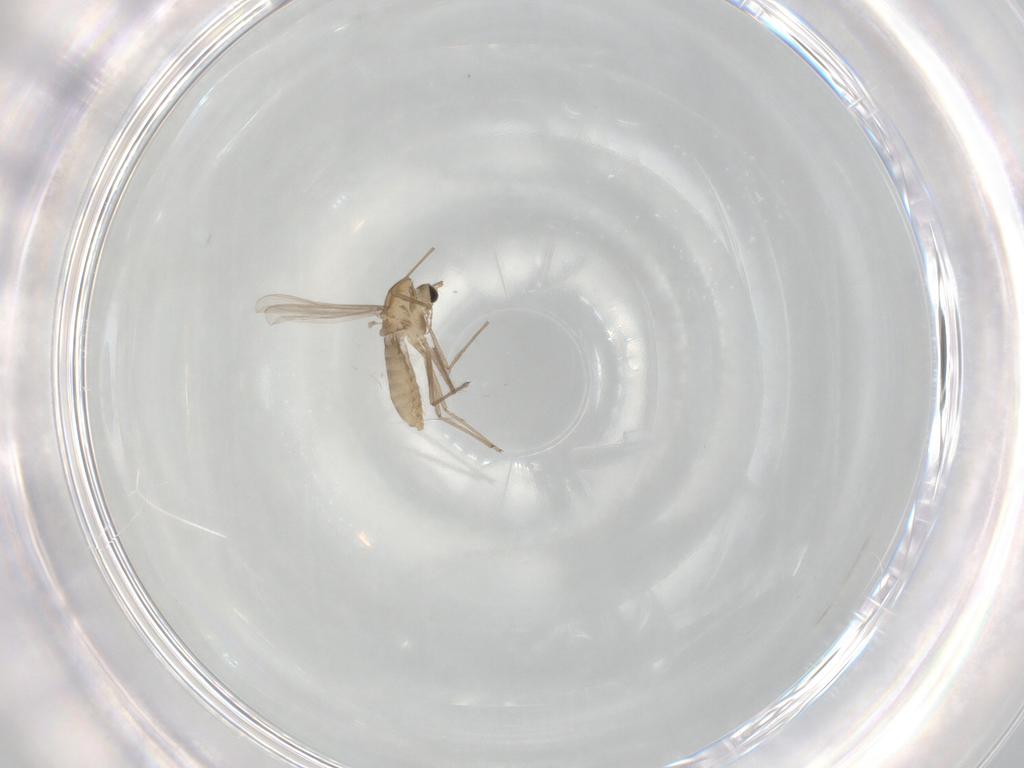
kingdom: Animalia
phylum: Arthropoda
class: Insecta
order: Diptera
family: Chironomidae
